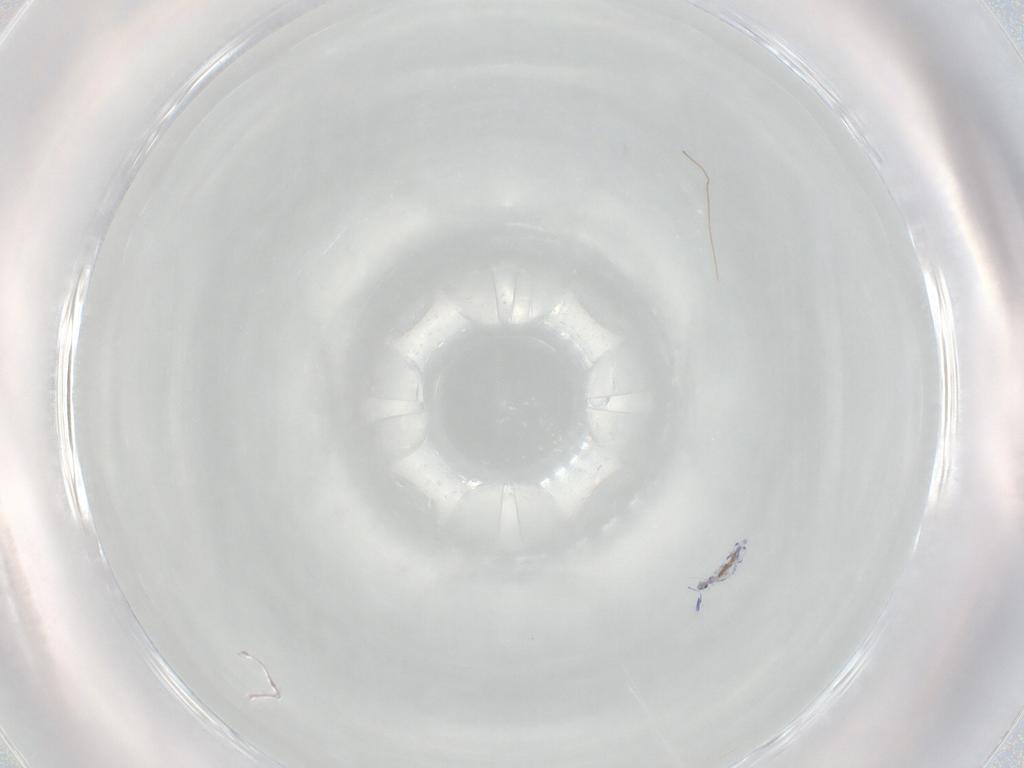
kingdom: Animalia
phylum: Arthropoda
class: Collembola
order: Entomobryomorpha
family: Entomobryidae
